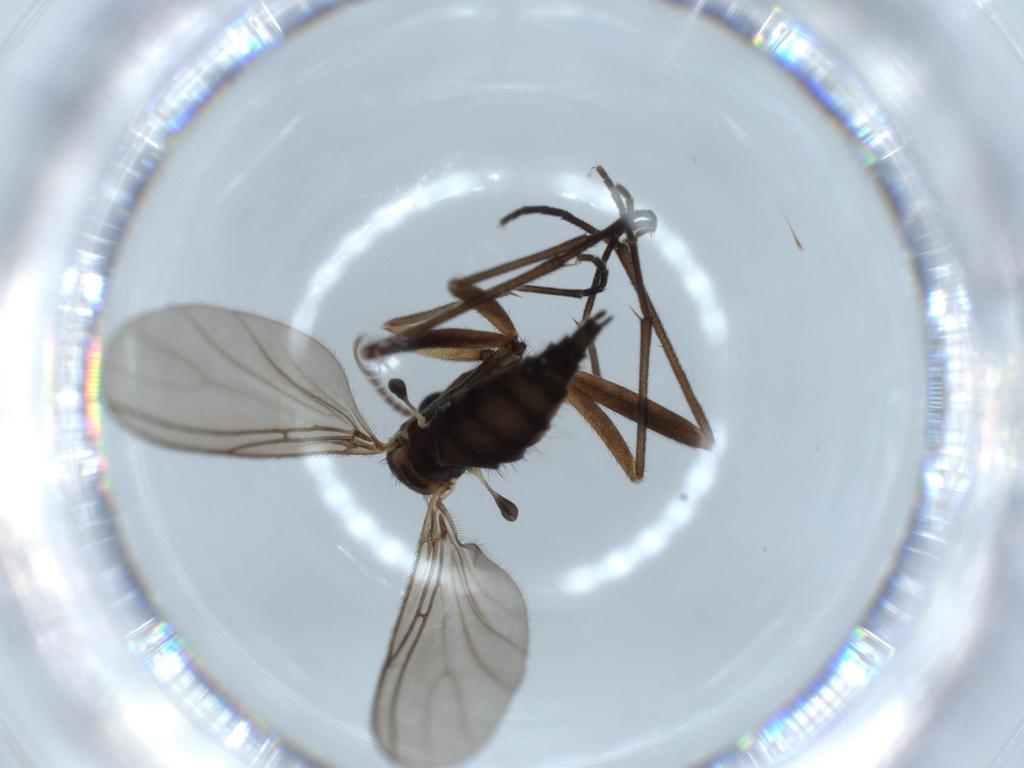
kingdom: Animalia
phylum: Arthropoda
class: Insecta
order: Diptera
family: Sciaridae
